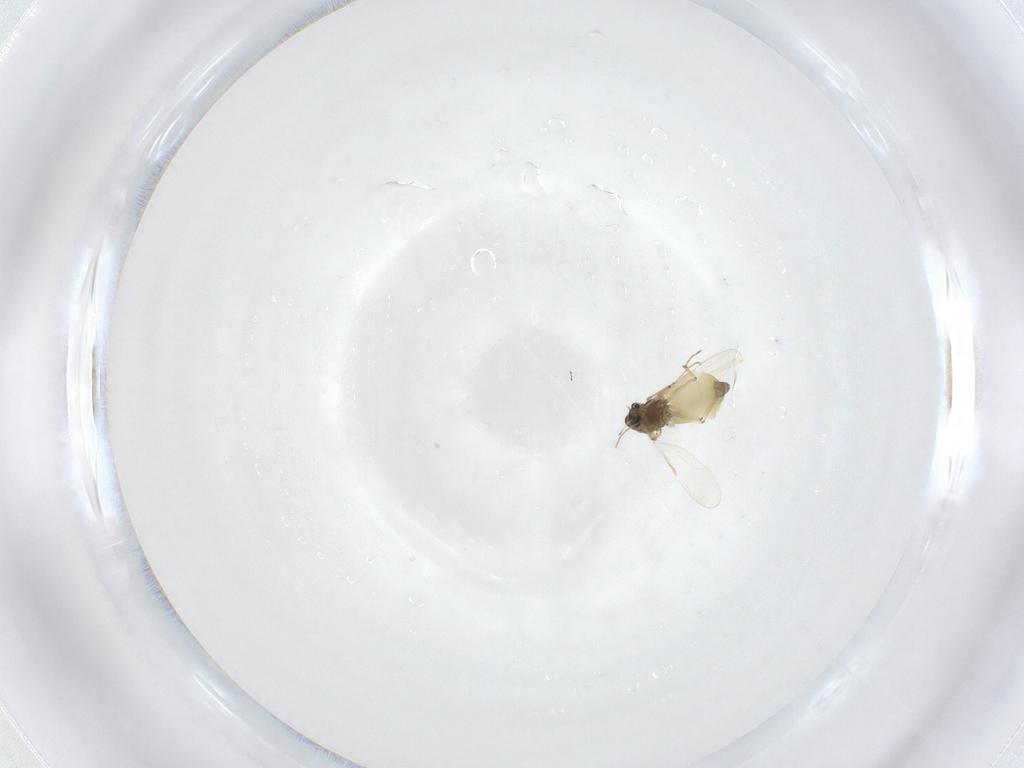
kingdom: Animalia
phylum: Arthropoda
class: Insecta
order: Diptera
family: Chironomidae
